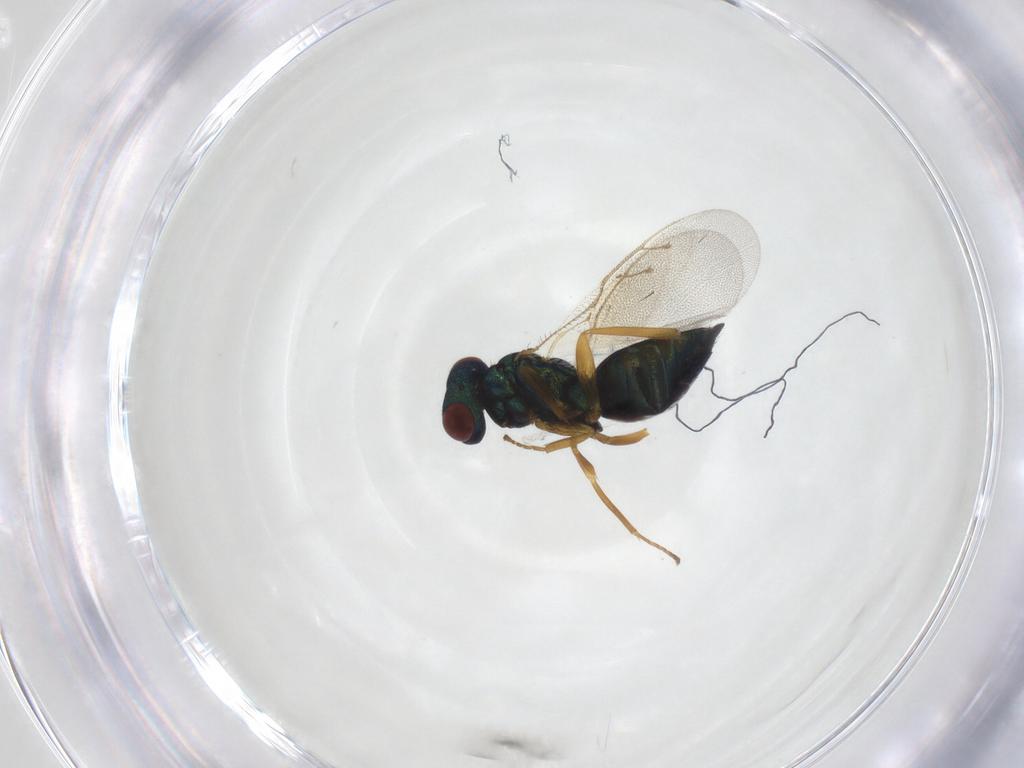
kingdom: Animalia
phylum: Arthropoda
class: Insecta
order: Hymenoptera
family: Pteromalidae
